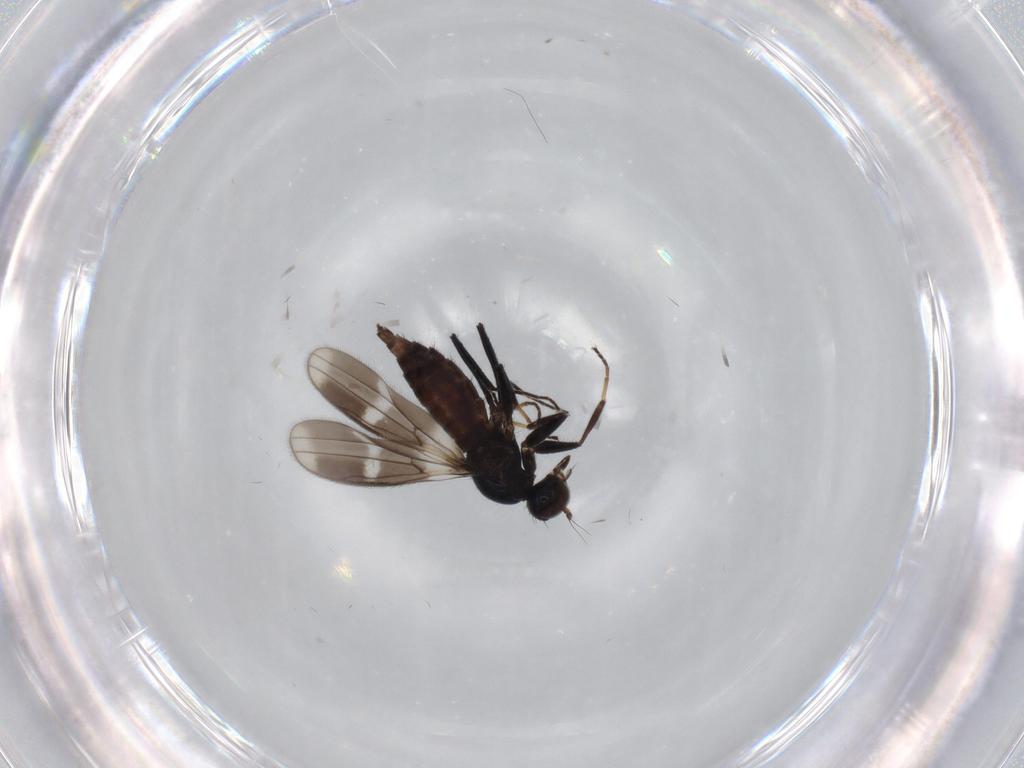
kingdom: Animalia
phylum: Arthropoda
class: Insecta
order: Diptera
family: Hybotidae
